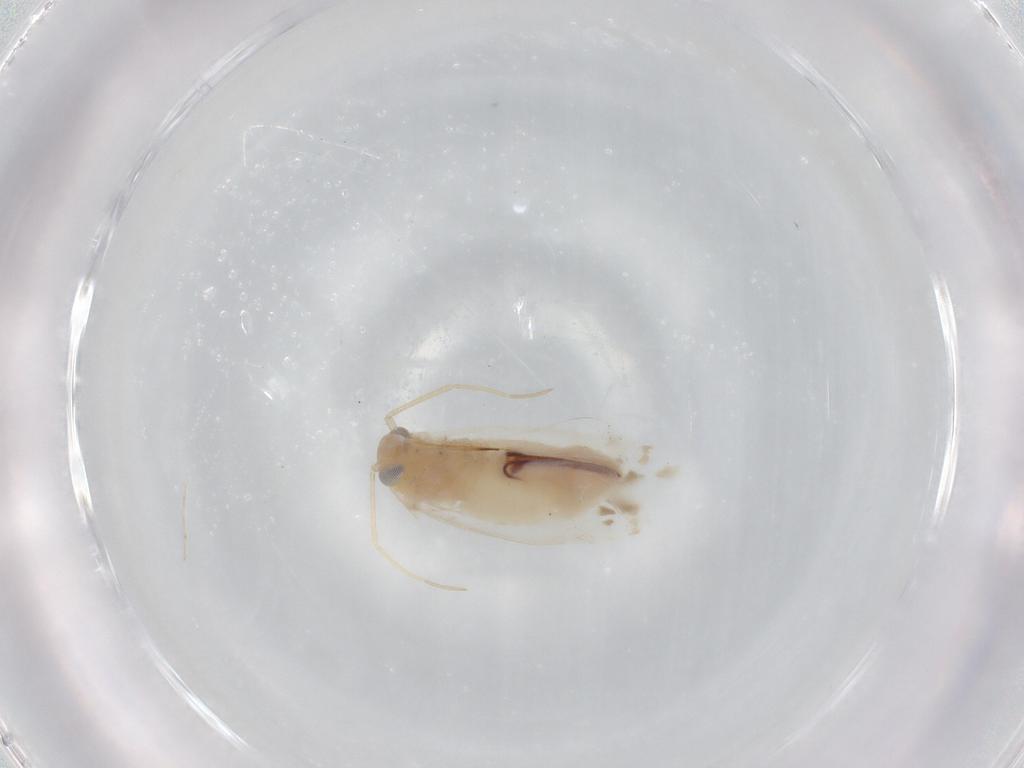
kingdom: Animalia
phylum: Arthropoda
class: Insecta
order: Hemiptera
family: Cicadellidae
